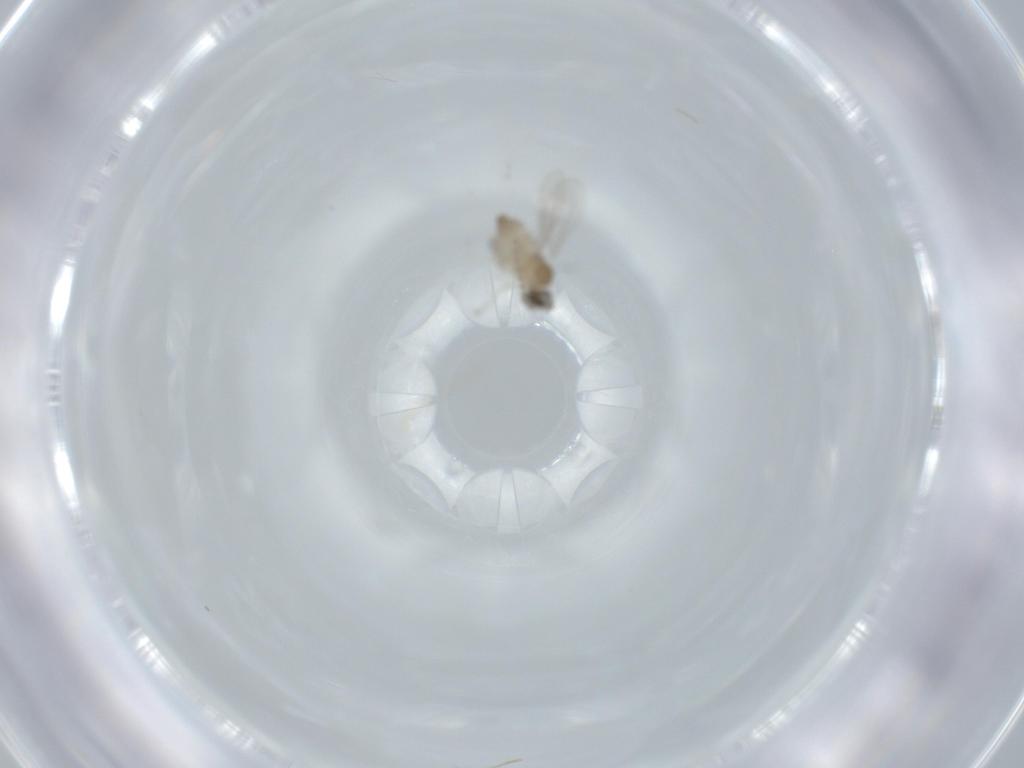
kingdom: Animalia
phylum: Arthropoda
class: Insecta
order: Diptera
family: Cecidomyiidae
